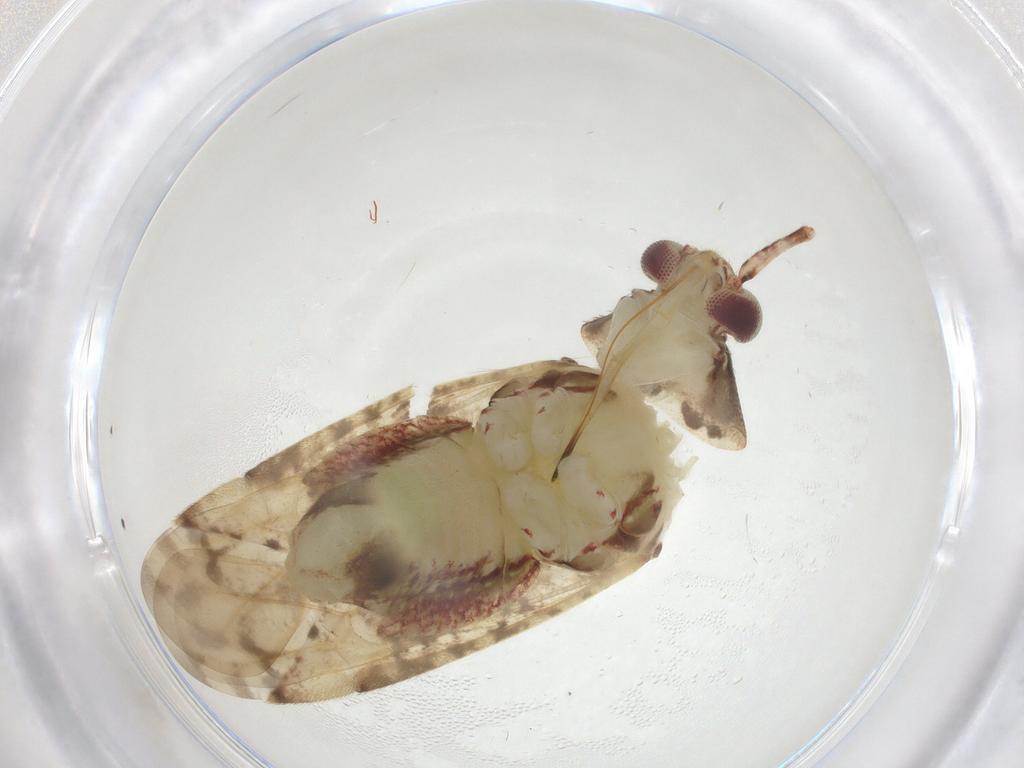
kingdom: Animalia
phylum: Arthropoda
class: Insecta
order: Hemiptera
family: Miridae
